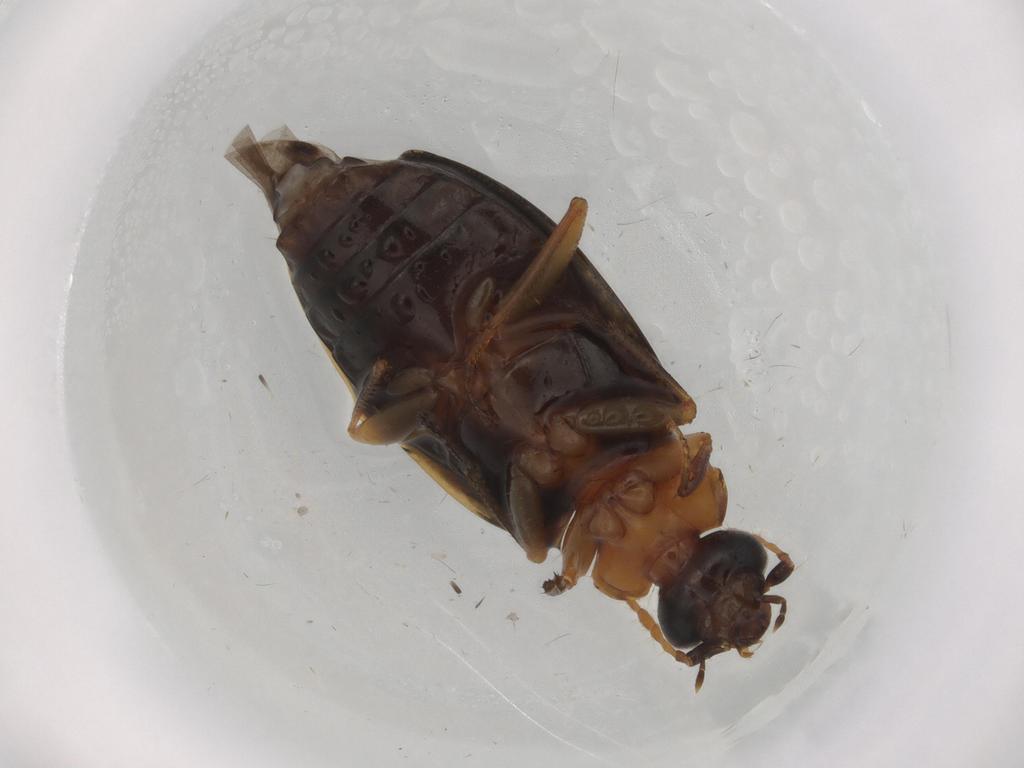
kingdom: Animalia
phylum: Arthropoda
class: Insecta
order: Coleoptera
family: Carabidae
